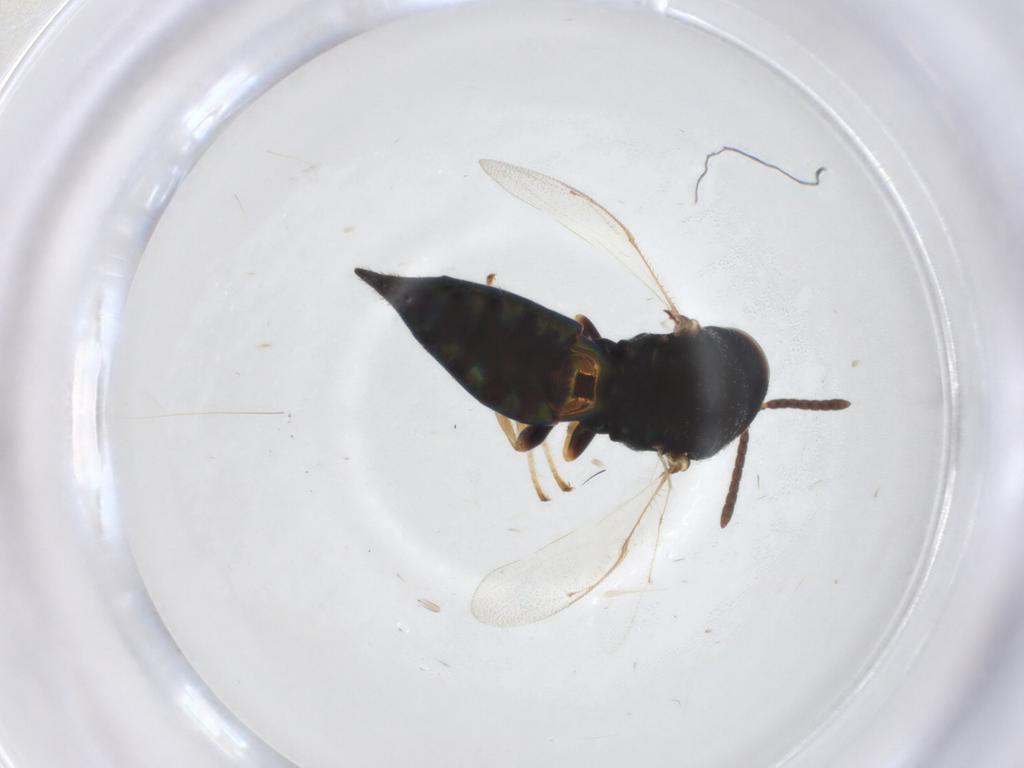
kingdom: Animalia
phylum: Arthropoda
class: Insecta
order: Hymenoptera
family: Pteromalidae
